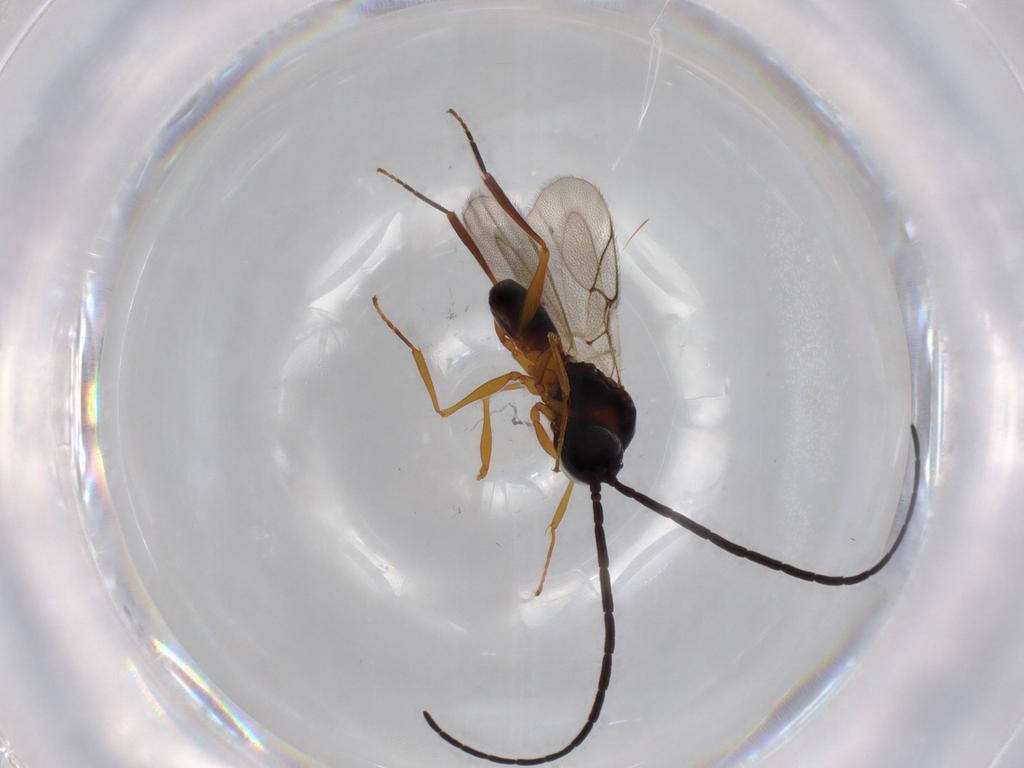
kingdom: Animalia
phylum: Arthropoda
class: Insecta
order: Hymenoptera
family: Figitidae
